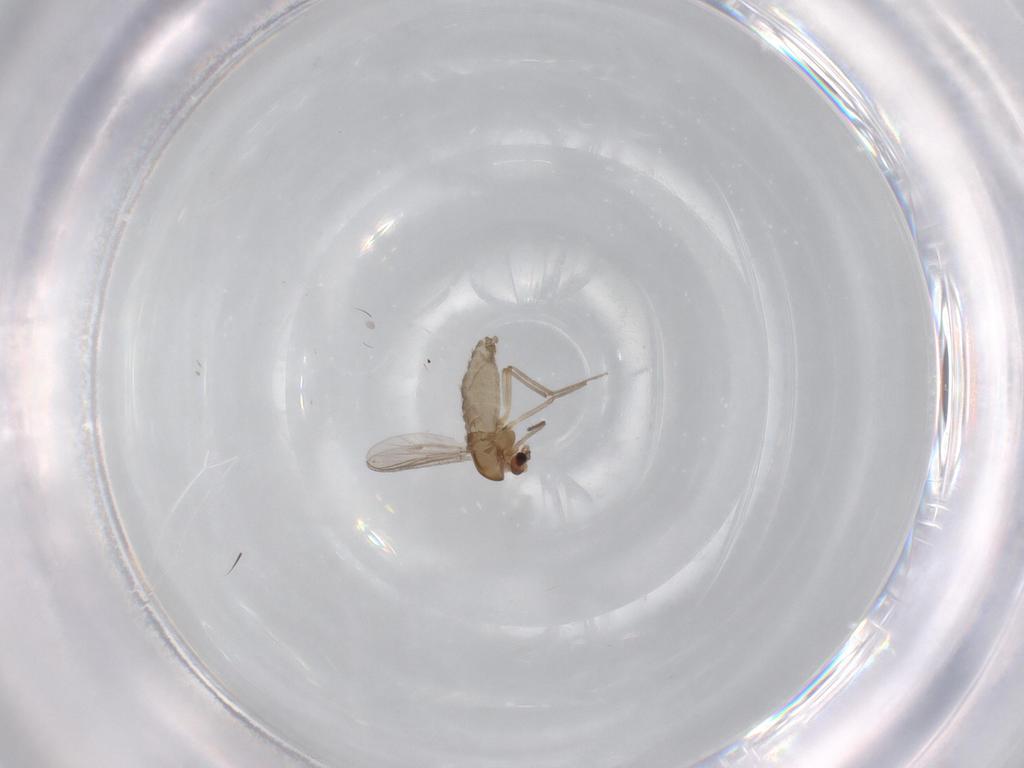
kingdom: Animalia
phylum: Arthropoda
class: Insecta
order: Diptera
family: Chironomidae
